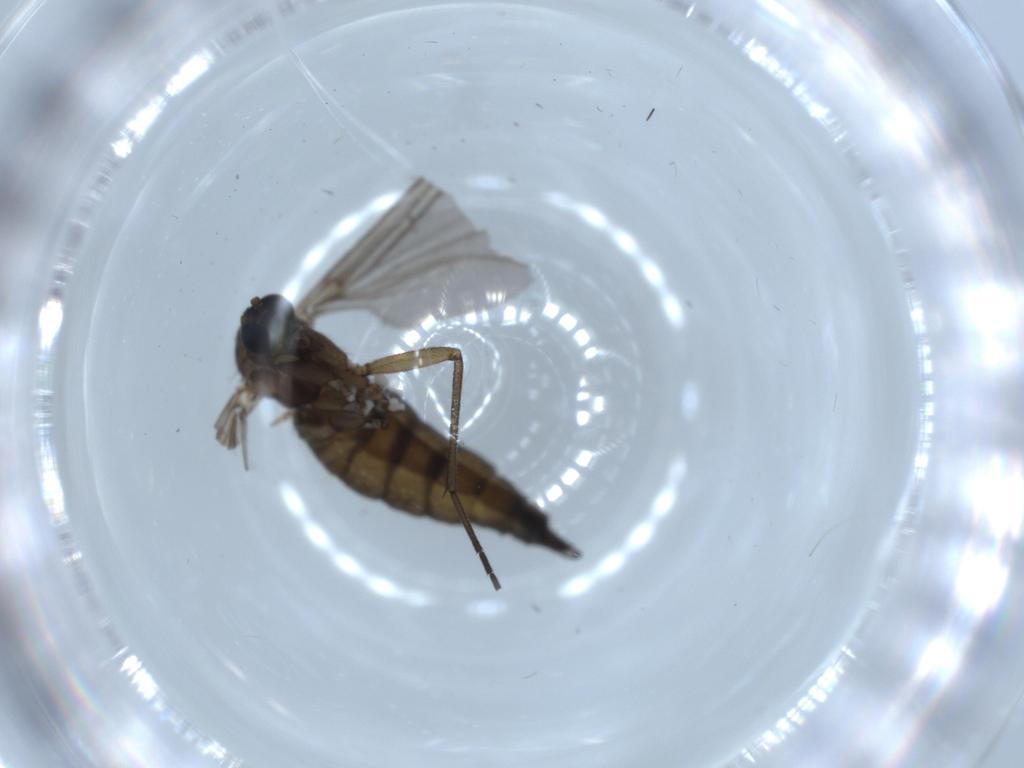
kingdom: Animalia
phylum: Arthropoda
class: Insecta
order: Diptera
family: Sciaridae
